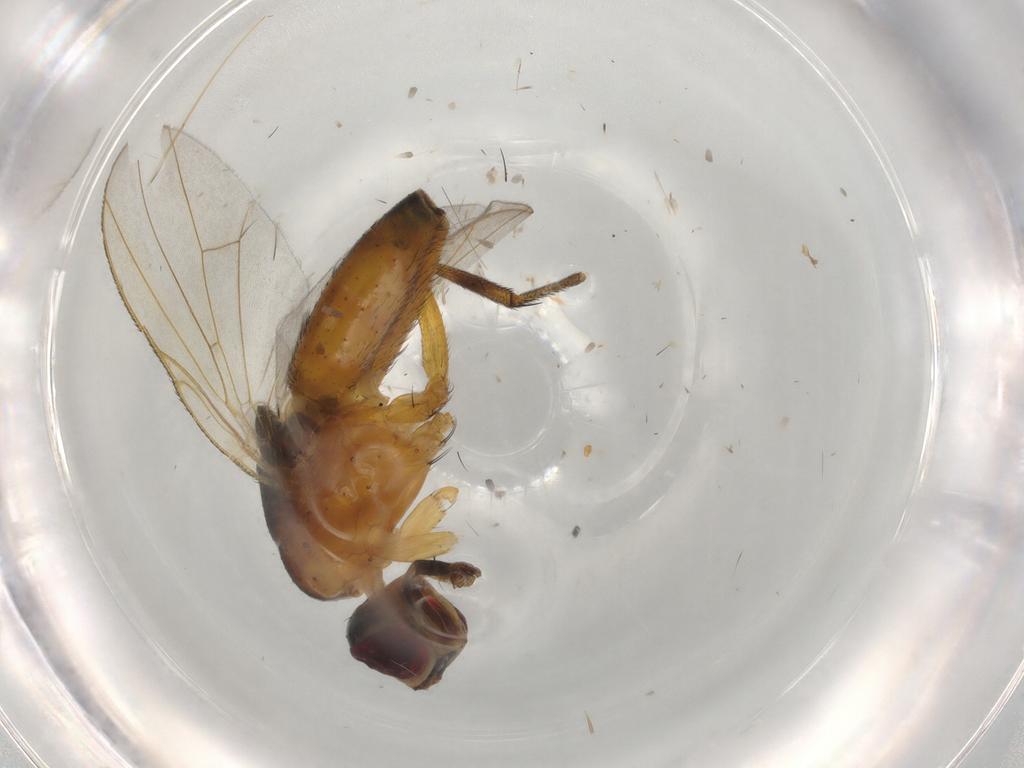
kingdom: Animalia
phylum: Arthropoda
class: Insecta
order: Diptera
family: Muscidae
